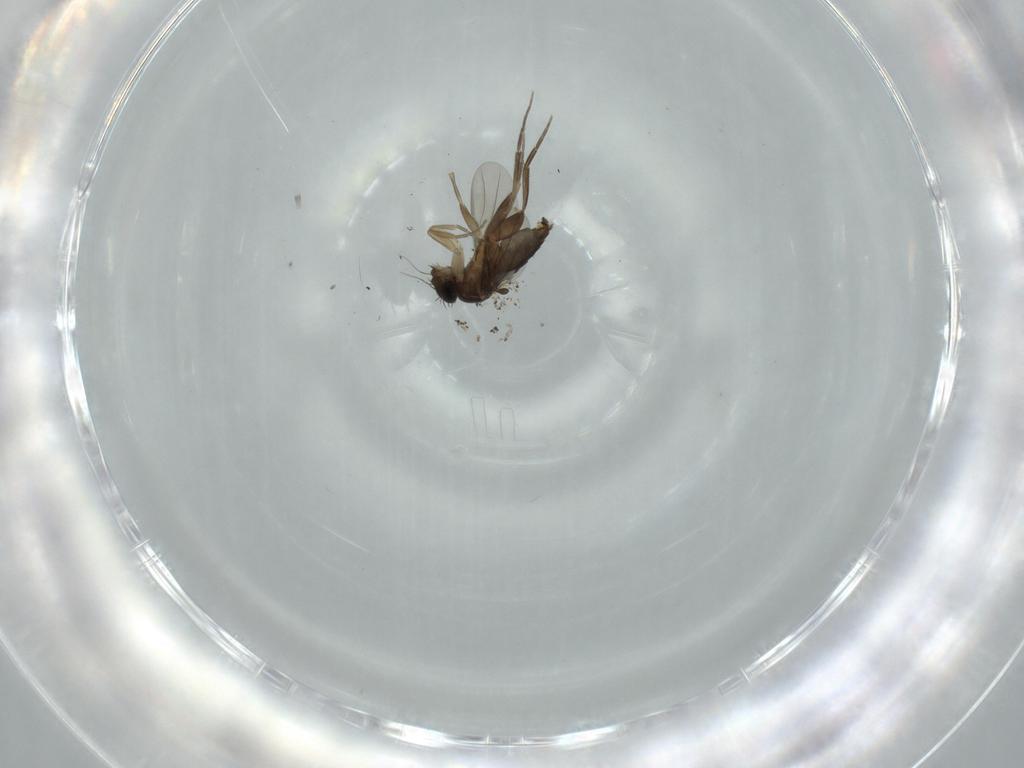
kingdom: Animalia
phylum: Arthropoda
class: Insecta
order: Diptera
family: Phoridae
